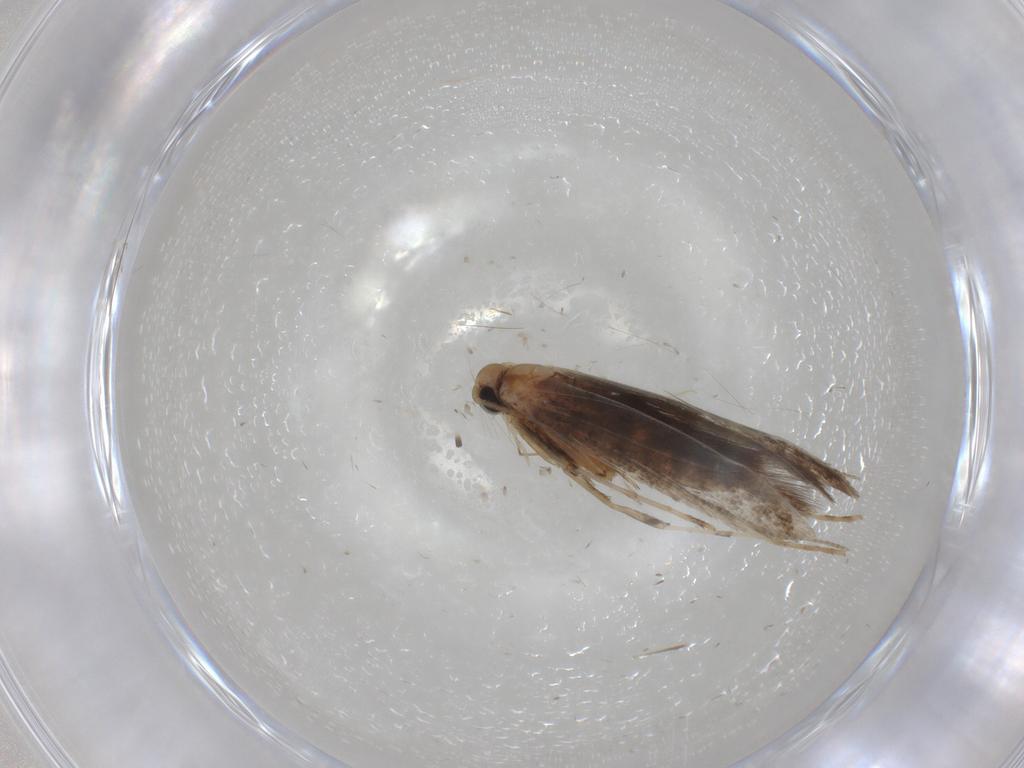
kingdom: Animalia
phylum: Arthropoda
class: Insecta
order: Lepidoptera
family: Gracillariidae
